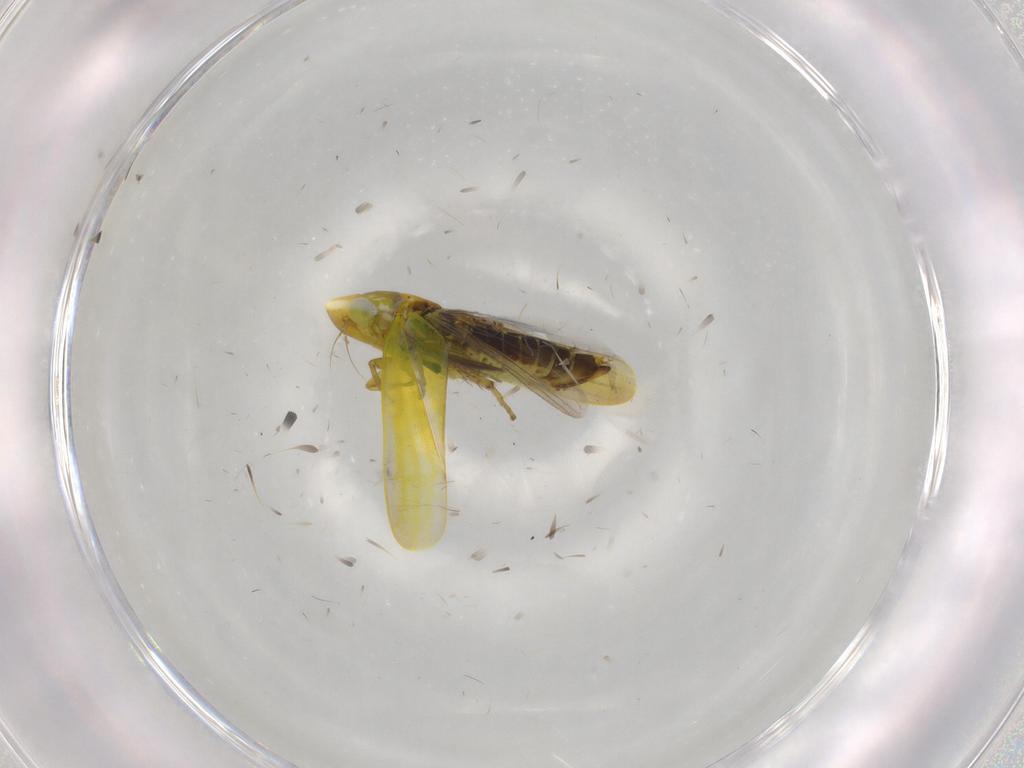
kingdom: Animalia
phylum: Arthropoda
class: Insecta
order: Hemiptera
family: Cicadellidae
